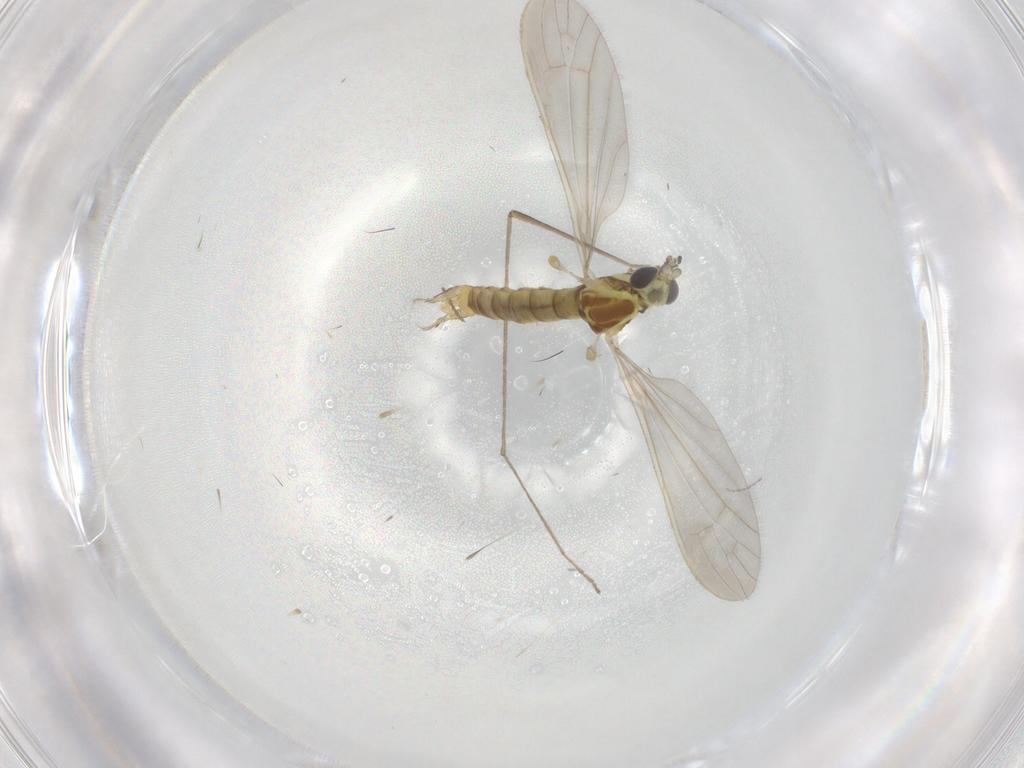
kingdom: Animalia
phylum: Arthropoda
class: Insecta
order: Diptera
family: Limoniidae
